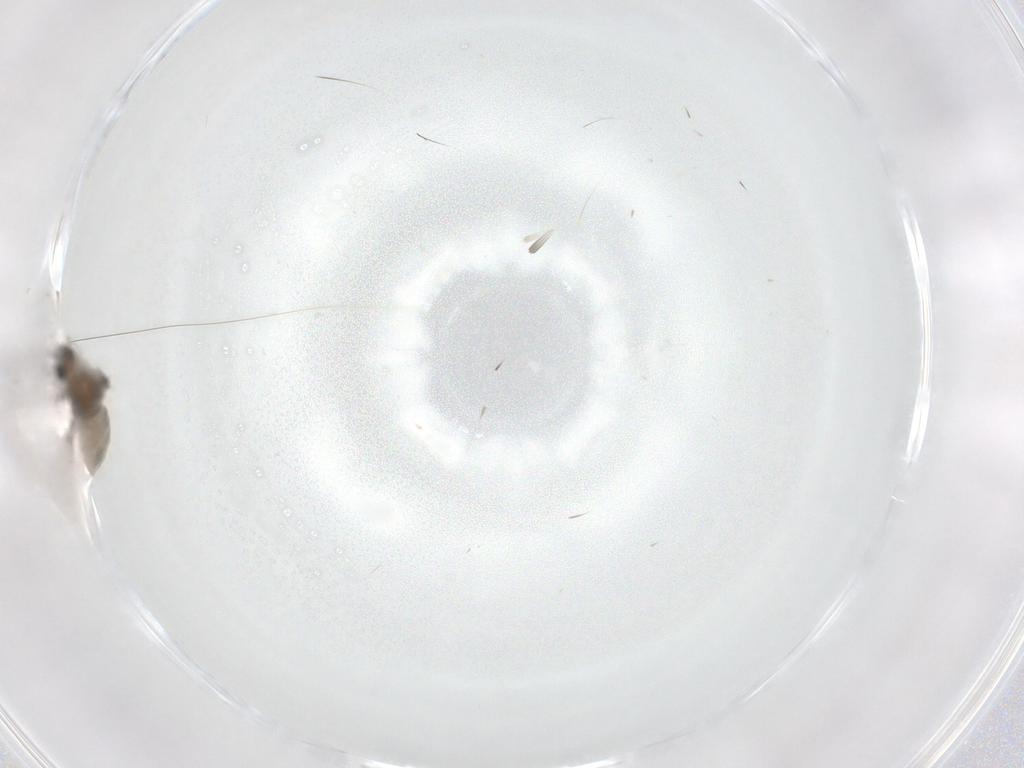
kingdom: Animalia
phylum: Arthropoda
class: Insecta
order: Diptera
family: Cecidomyiidae
